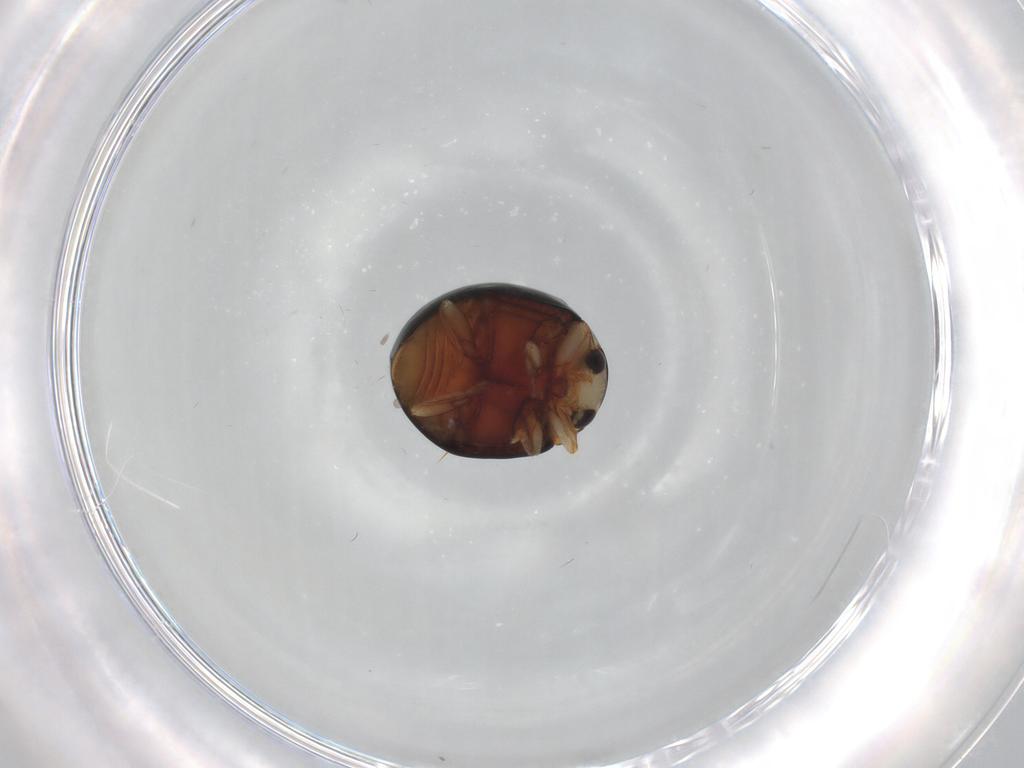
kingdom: Animalia
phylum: Arthropoda
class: Insecta
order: Coleoptera
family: Coccinellidae
